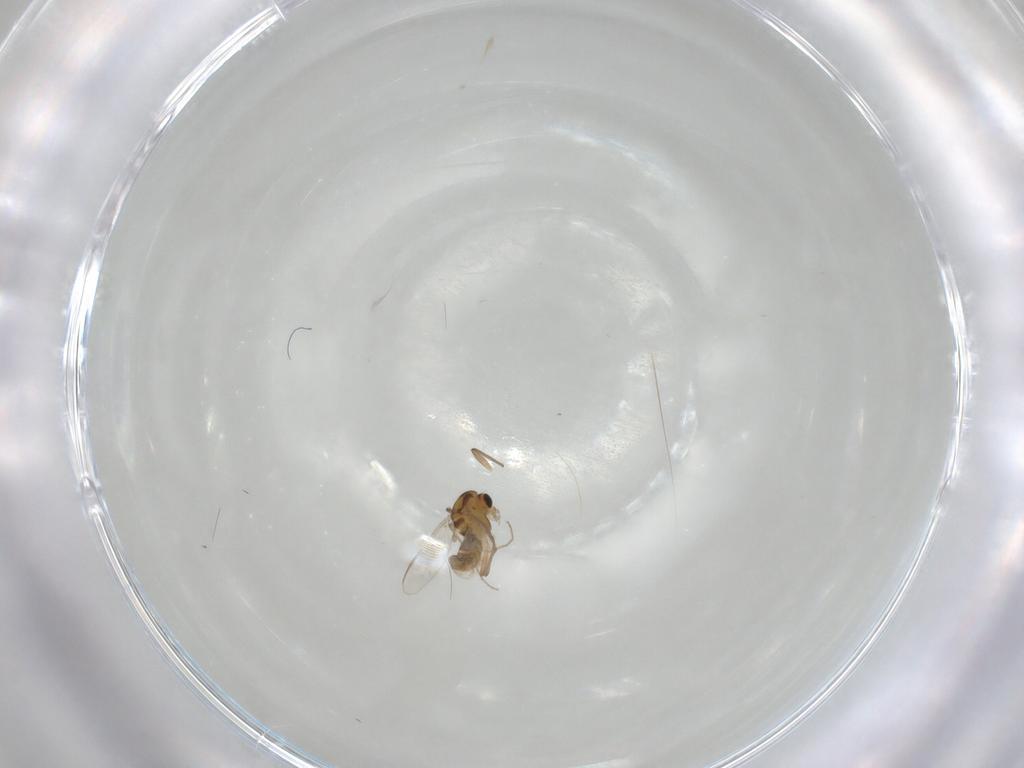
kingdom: Animalia
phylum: Arthropoda
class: Insecta
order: Diptera
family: Chironomidae
